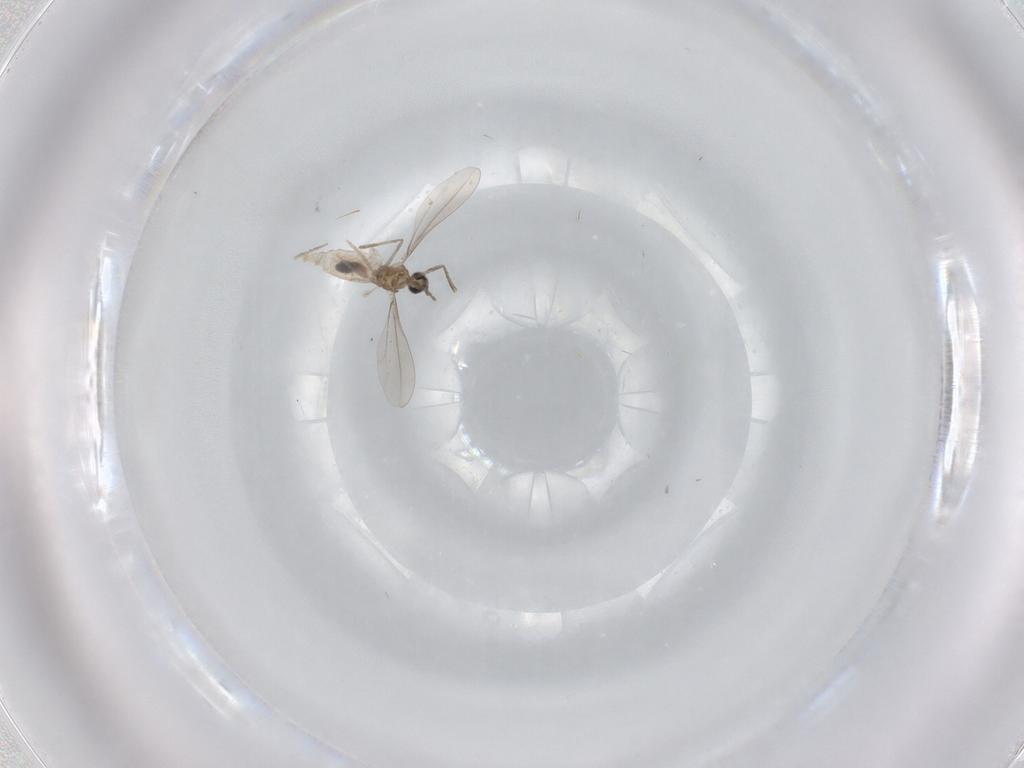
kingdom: Animalia
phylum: Arthropoda
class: Insecta
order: Diptera
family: Psychodidae
